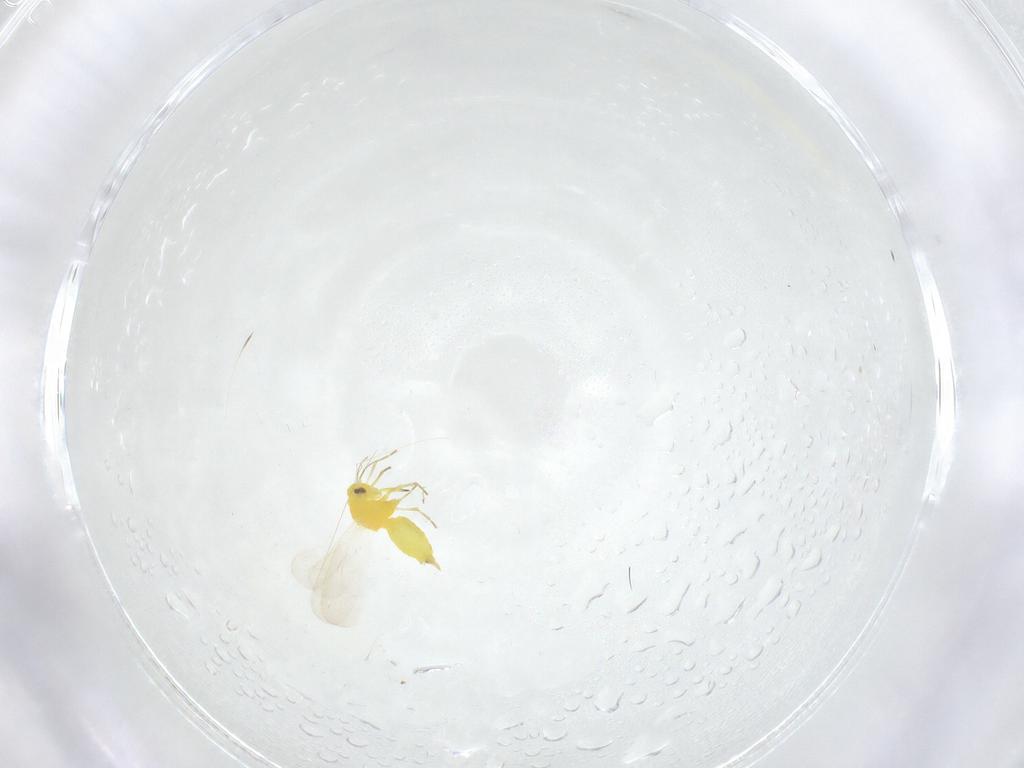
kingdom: Animalia
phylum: Arthropoda
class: Insecta
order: Hemiptera
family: Aleyrodidae
